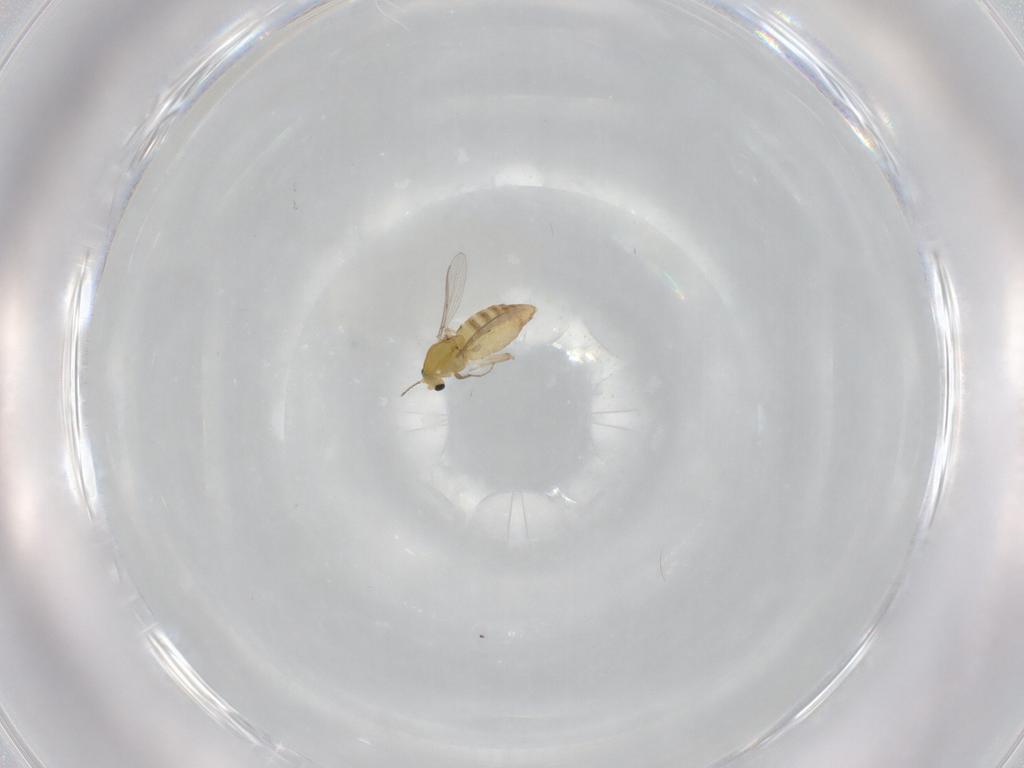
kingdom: Animalia
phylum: Arthropoda
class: Insecta
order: Diptera
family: Chironomidae
